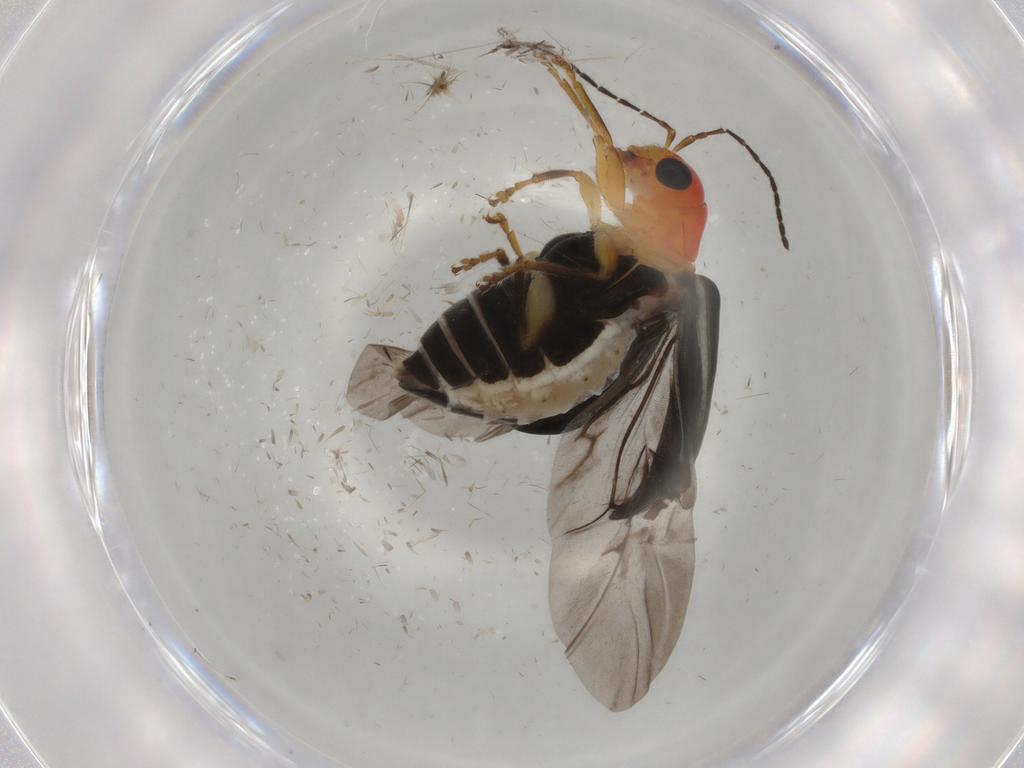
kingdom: Animalia
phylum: Arthropoda
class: Insecta
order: Coleoptera
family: Chrysomelidae
